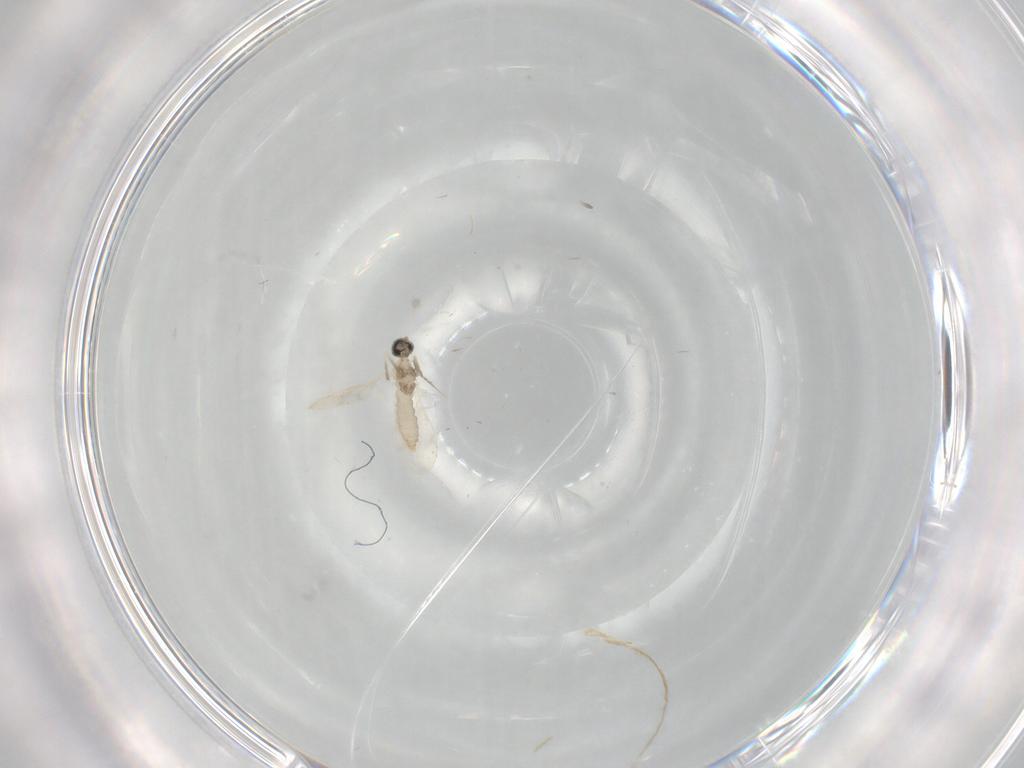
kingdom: Animalia
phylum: Arthropoda
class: Insecta
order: Diptera
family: Cecidomyiidae
